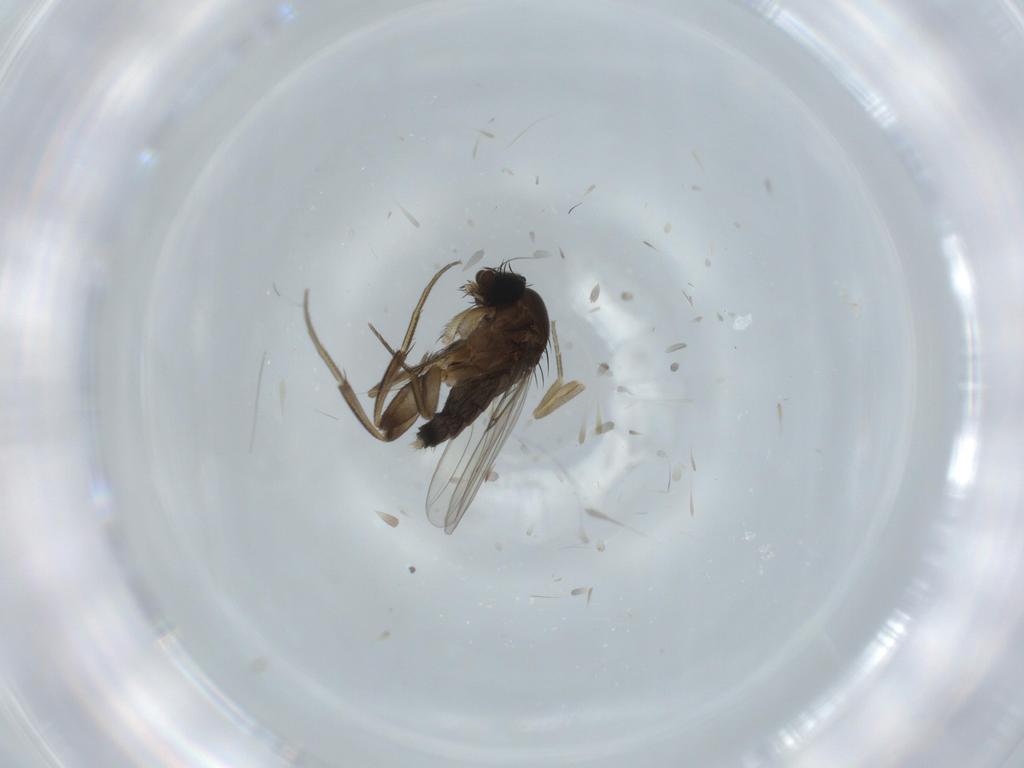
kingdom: Animalia
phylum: Arthropoda
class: Insecta
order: Diptera
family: Phoridae
